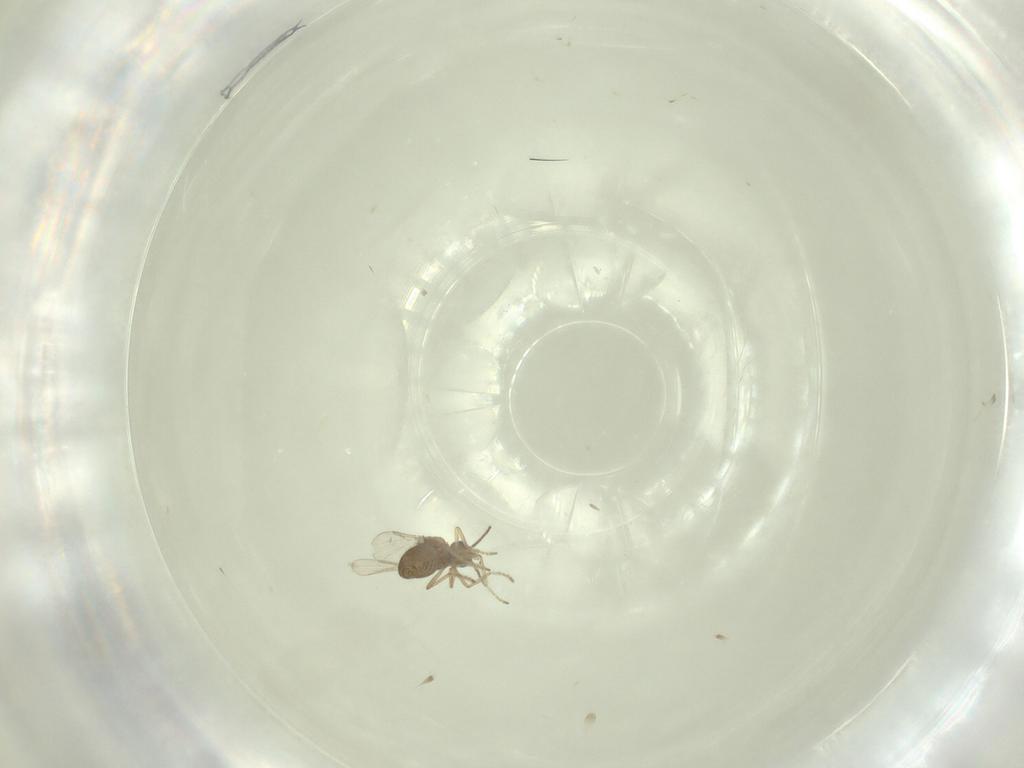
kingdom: Animalia
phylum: Arthropoda
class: Insecta
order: Diptera
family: Ceratopogonidae
